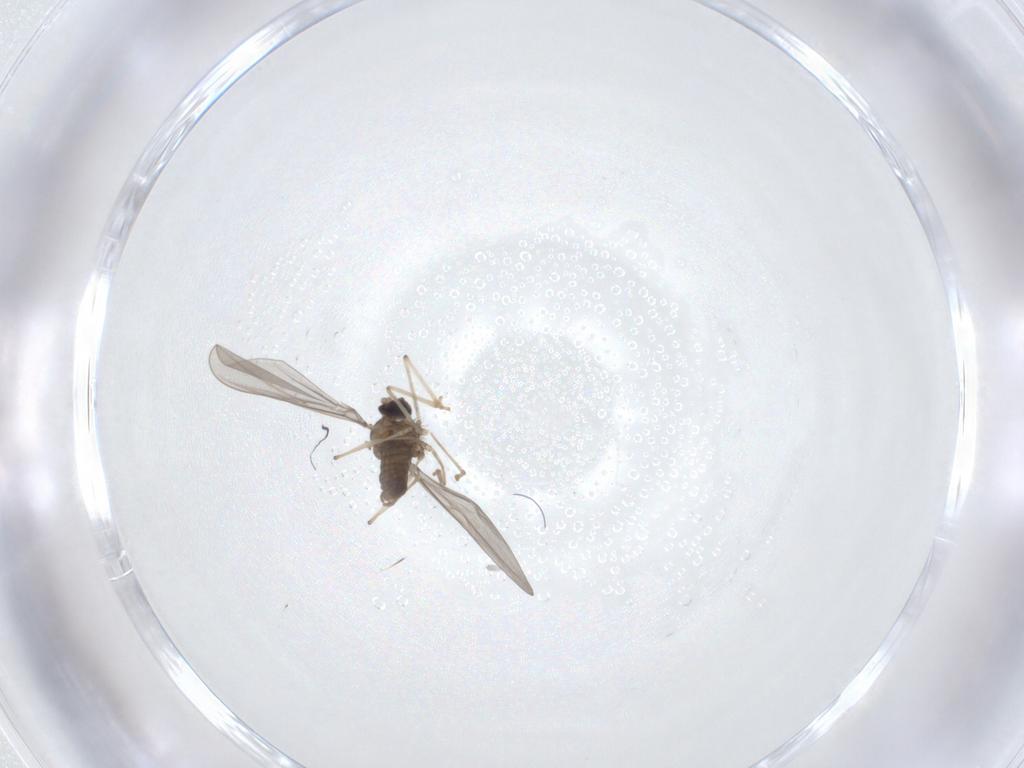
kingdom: Animalia
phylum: Arthropoda
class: Insecta
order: Diptera
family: Cecidomyiidae
